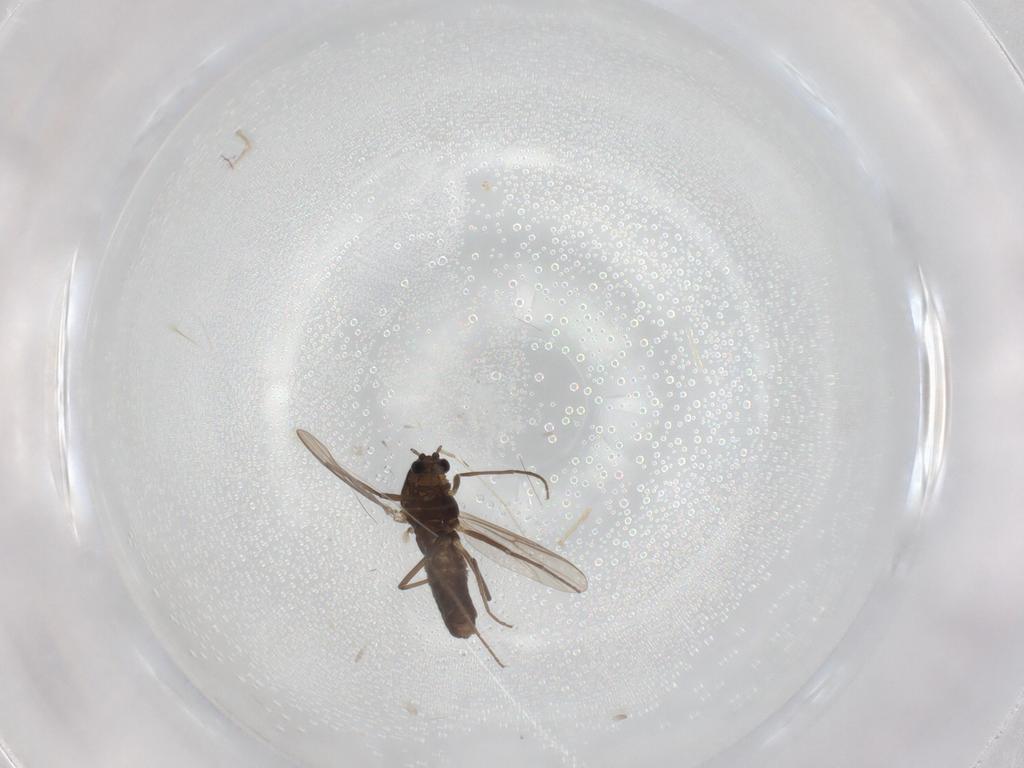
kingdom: Animalia
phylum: Arthropoda
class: Insecta
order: Diptera
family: Chironomidae
